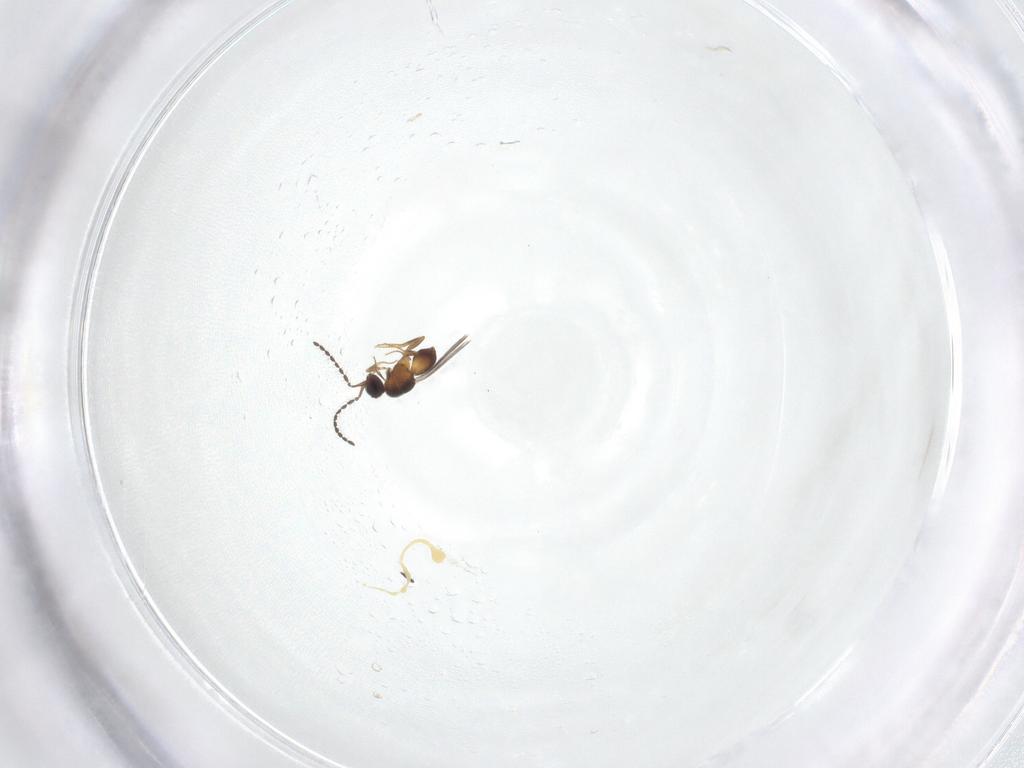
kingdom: Animalia
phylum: Arthropoda
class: Insecta
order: Hymenoptera
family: Ceraphronidae
